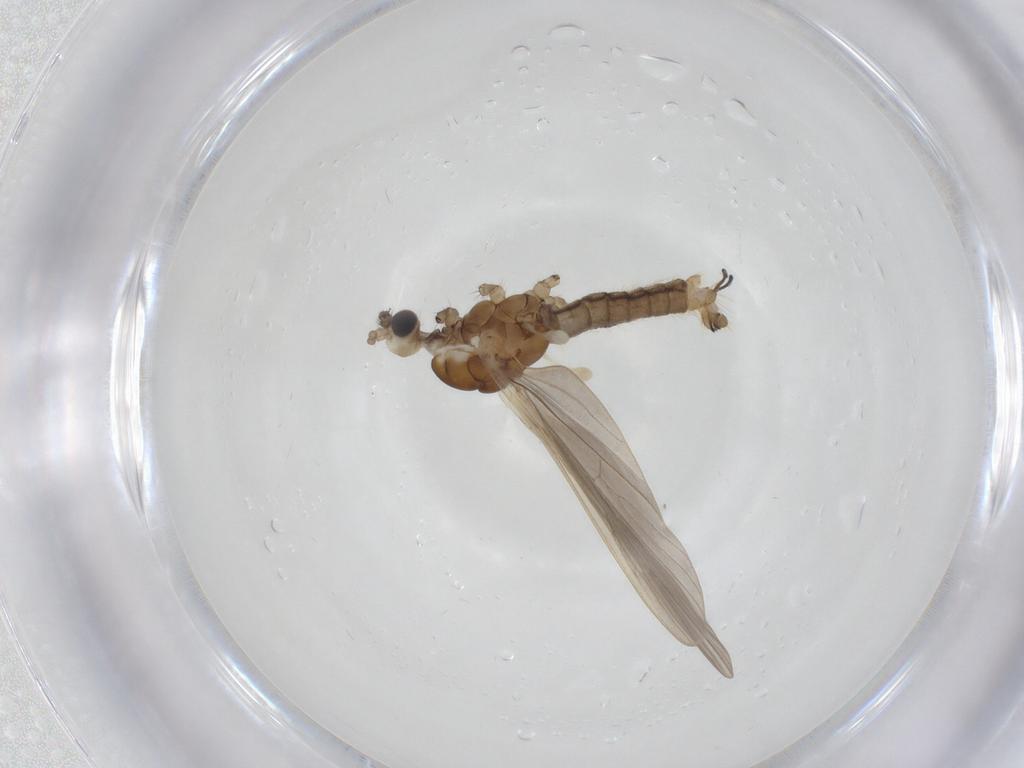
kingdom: Animalia
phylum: Arthropoda
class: Insecta
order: Diptera
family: Limoniidae
